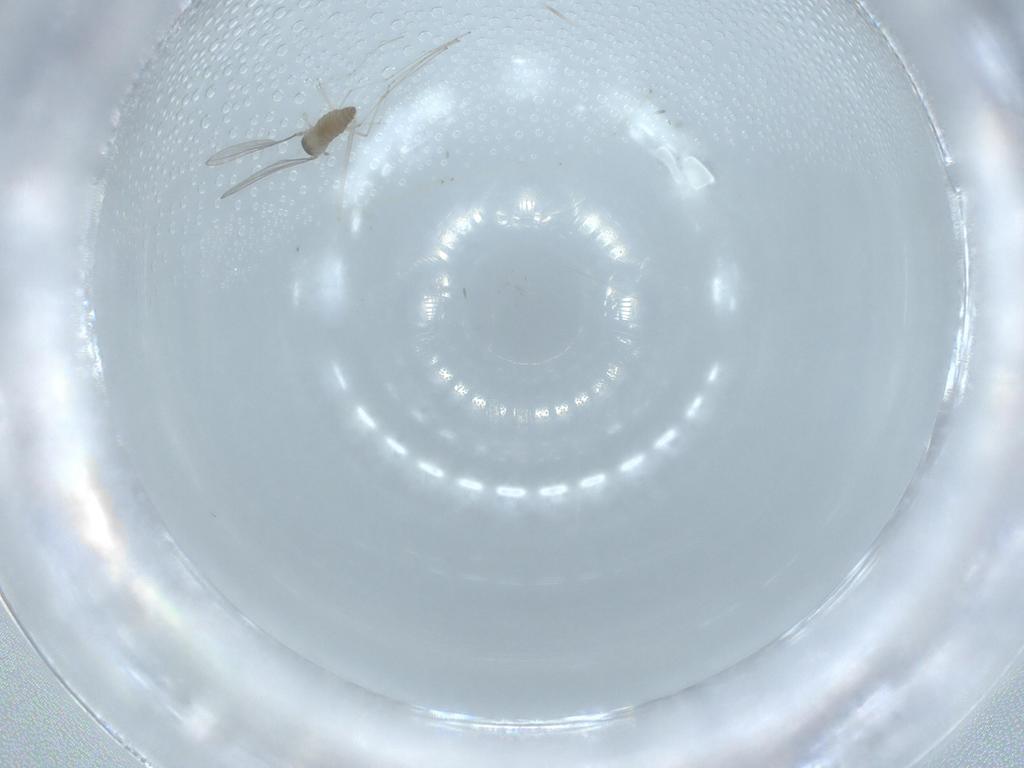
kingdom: Animalia
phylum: Arthropoda
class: Insecta
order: Diptera
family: Cecidomyiidae
